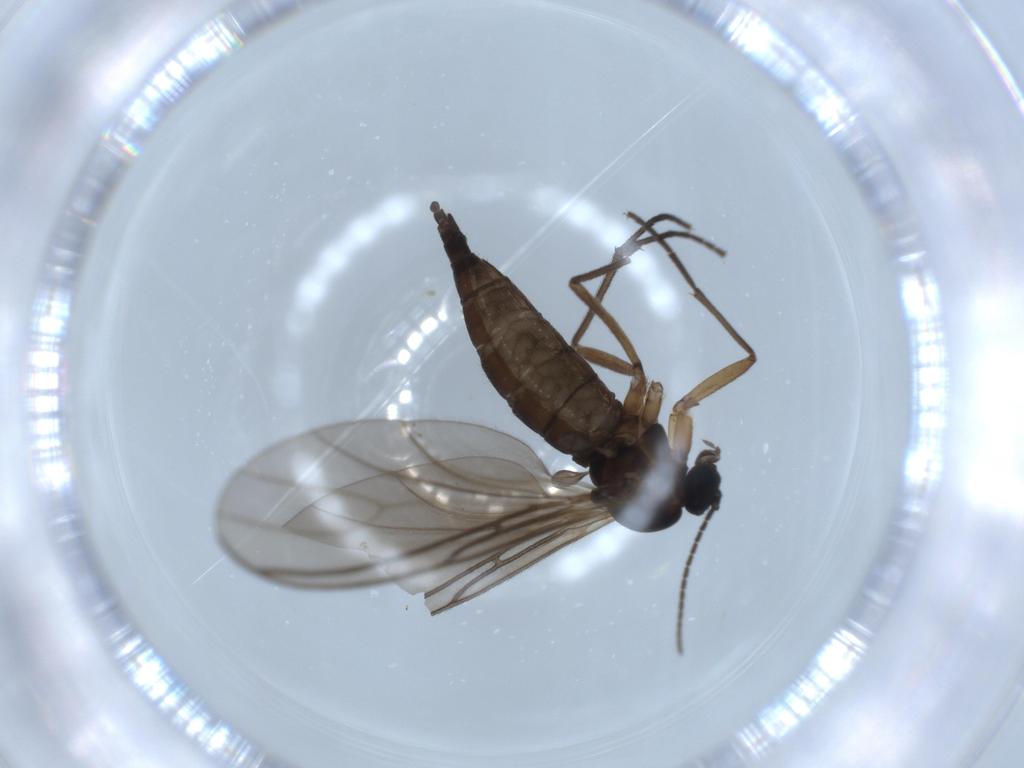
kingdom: Animalia
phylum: Arthropoda
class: Insecta
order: Diptera
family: Sciaridae
